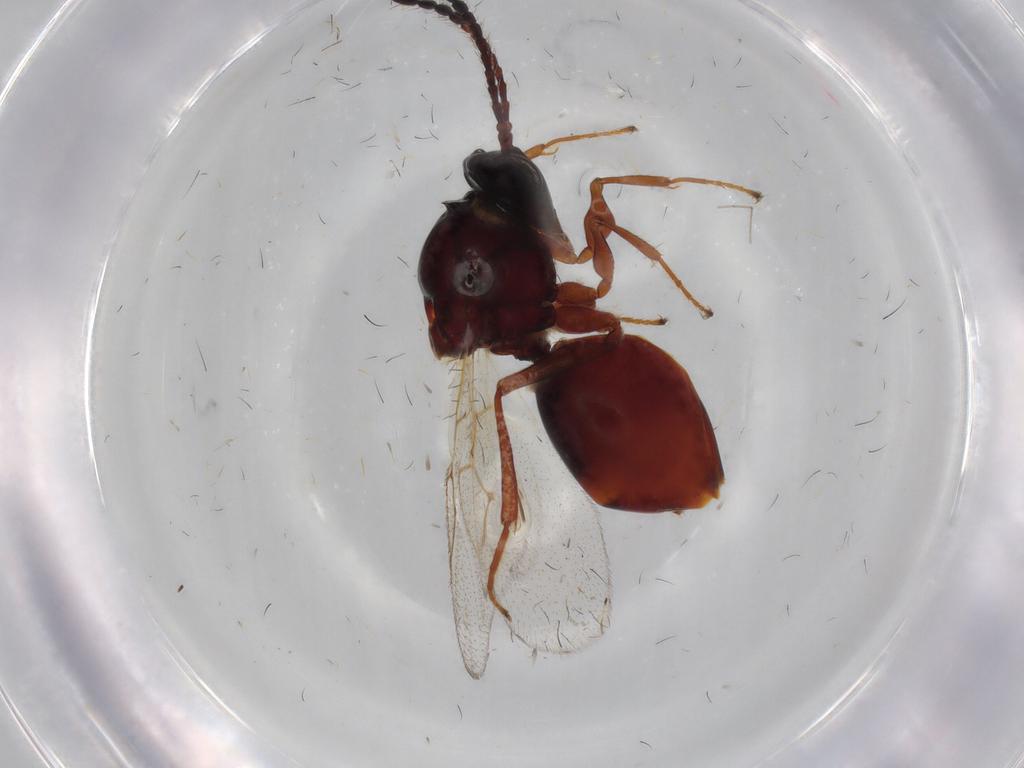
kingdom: Animalia
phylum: Arthropoda
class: Insecta
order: Hymenoptera
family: Figitidae
